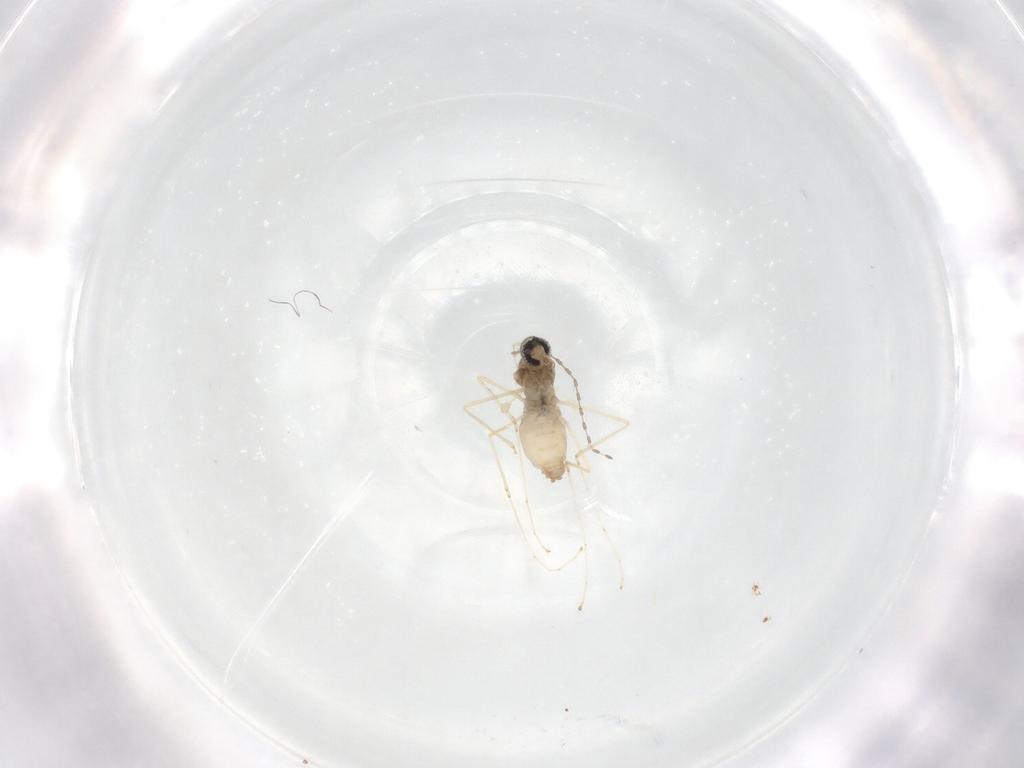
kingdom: Animalia
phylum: Arthropoda
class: Insecta
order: Diptera
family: Cecidomyiidae
